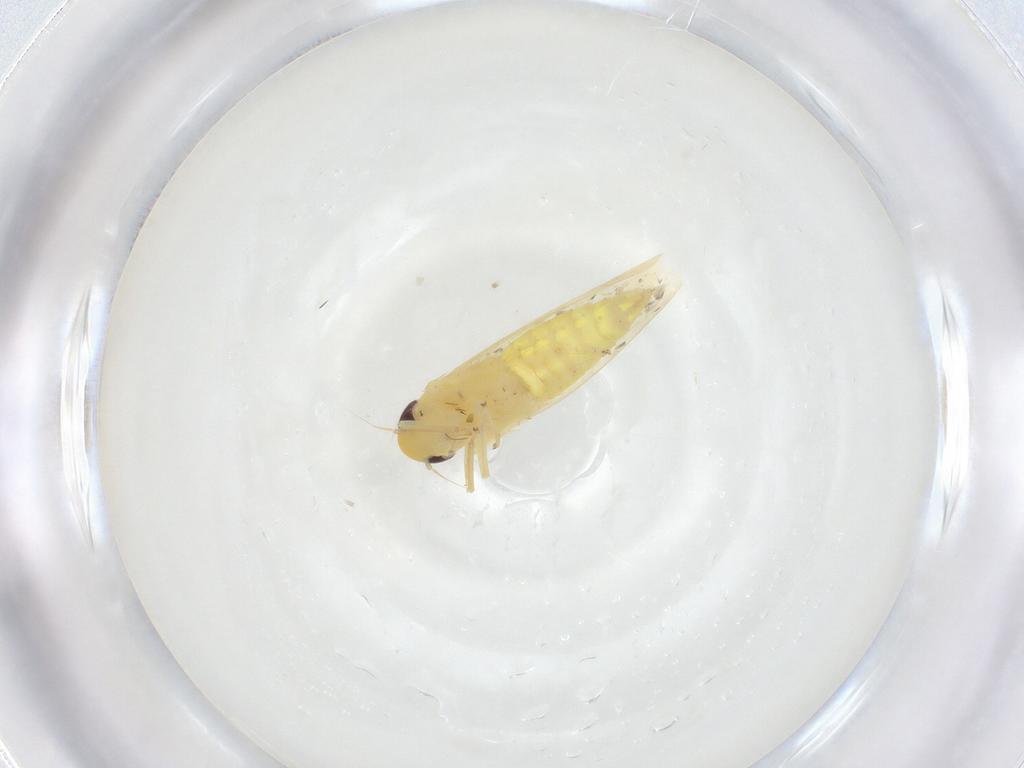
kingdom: Animalia
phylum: Arthropoda
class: Insecta
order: Hemiptera
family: Cicadellidae
